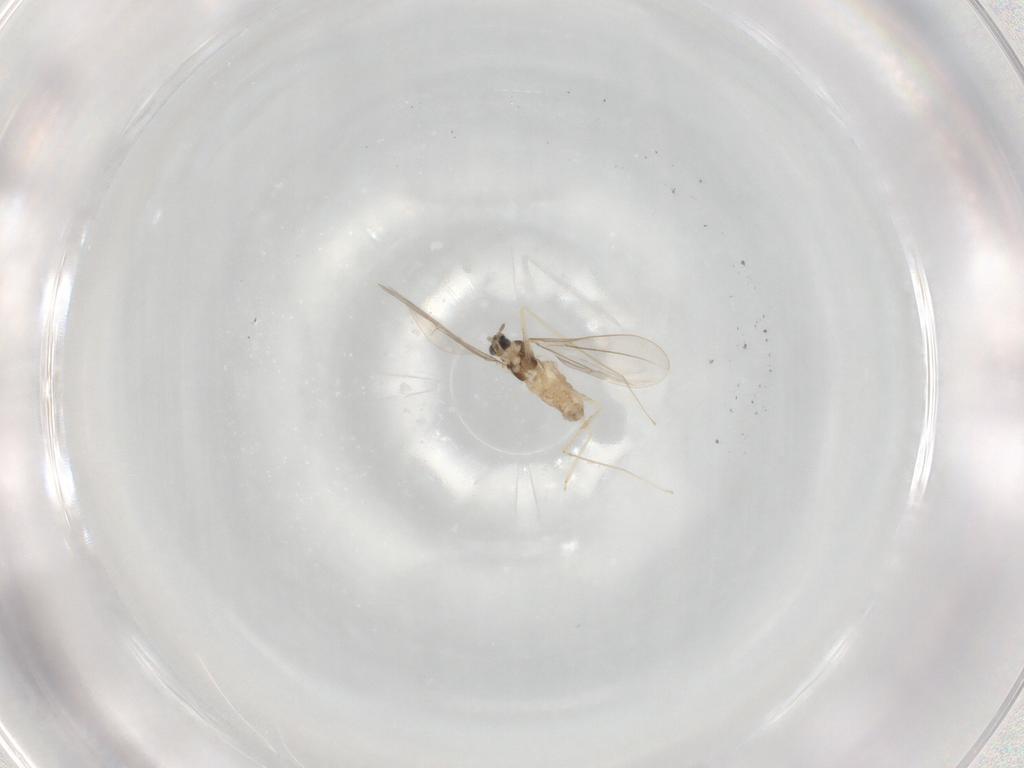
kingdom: Animalia
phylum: Arthropoda
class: Insecta
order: Diptera
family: Cecidomyiidae
